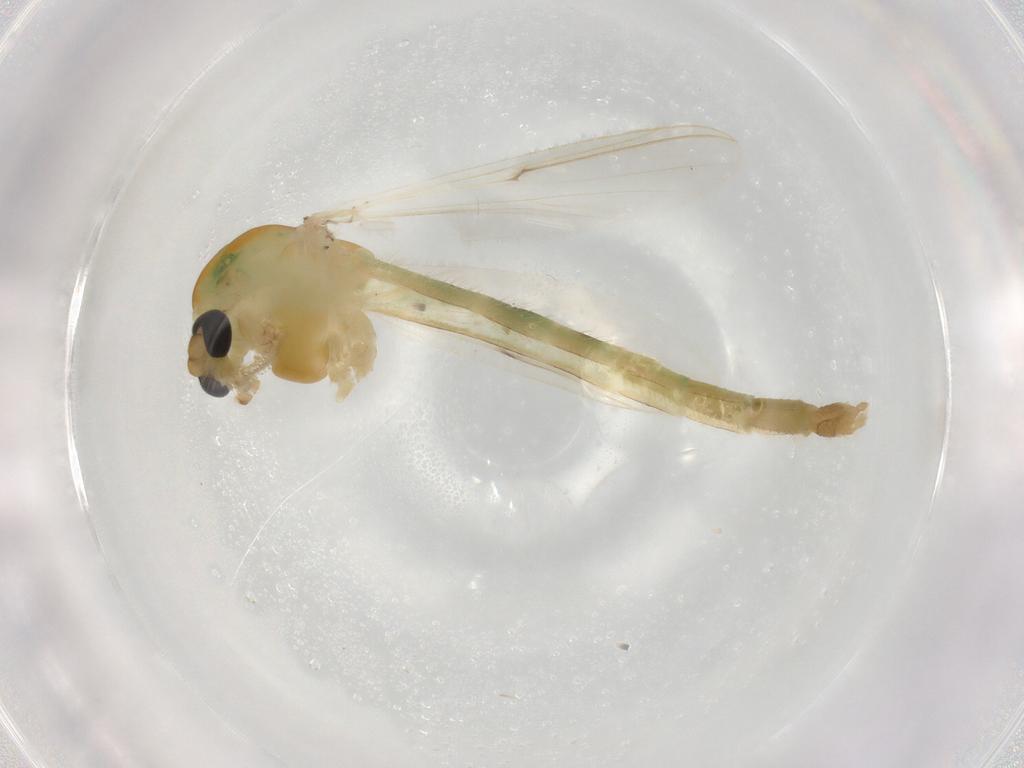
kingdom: Animalia
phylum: Arthropoda
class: Insecta
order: Diptera
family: Chironomidae
